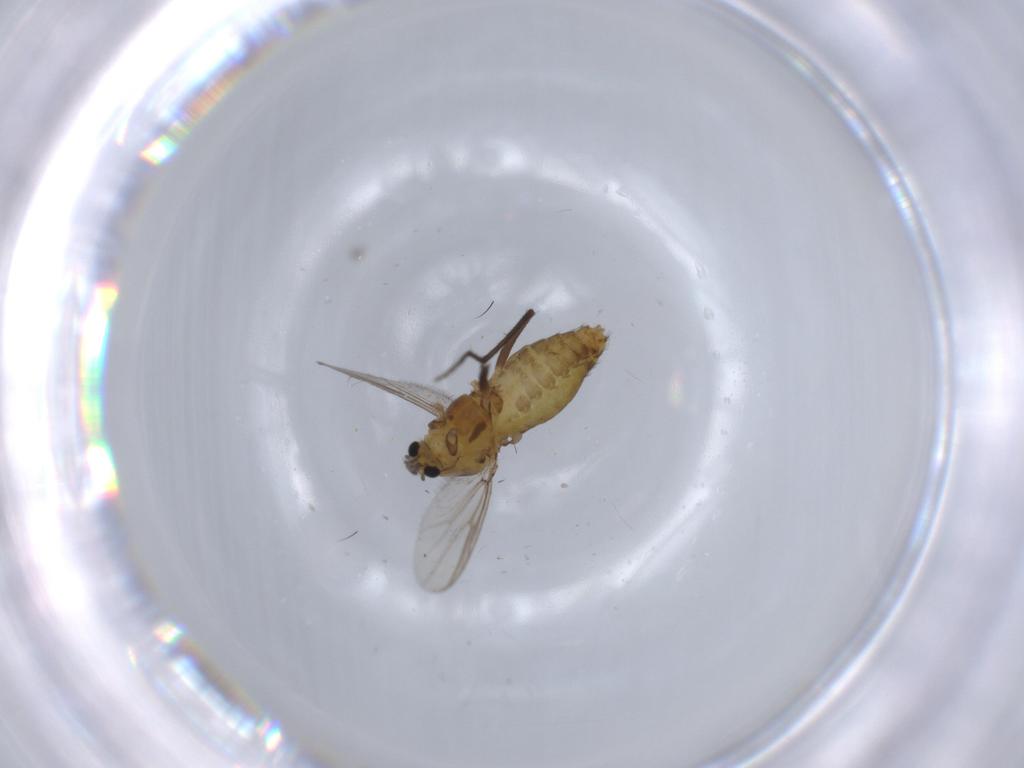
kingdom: Animalia
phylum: Arthropoda
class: Insecta
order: Diptera
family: Chironomidae
